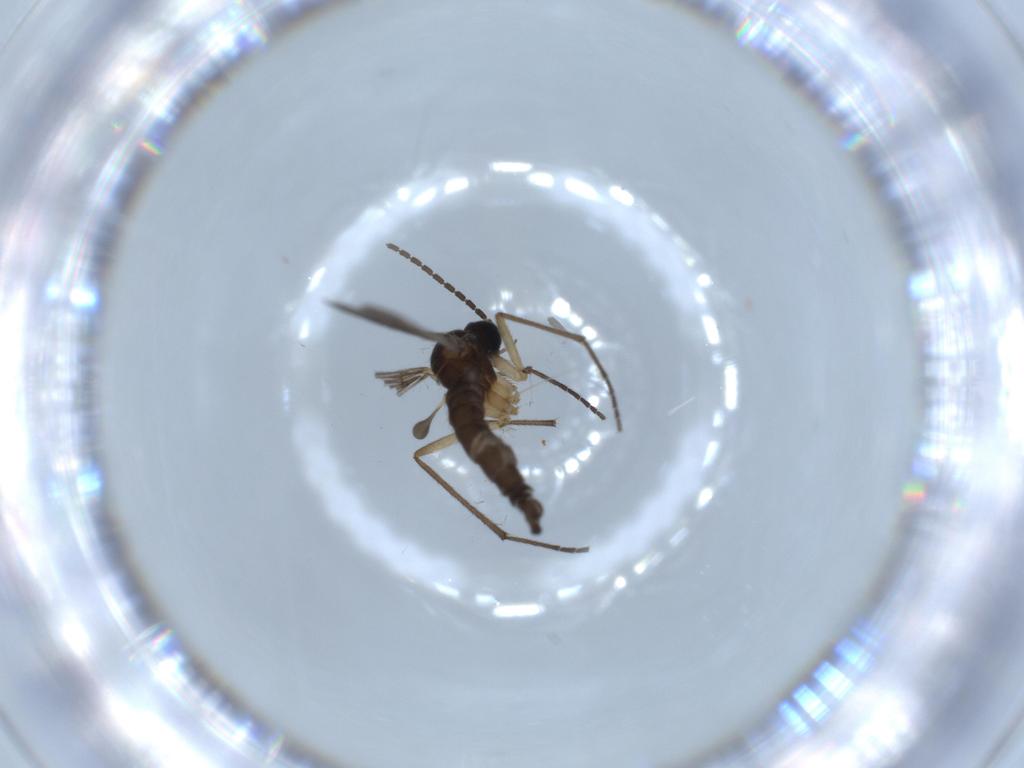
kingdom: Animalia
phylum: Arthropoda
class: Insecta
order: Diptera
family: Sciaridae
